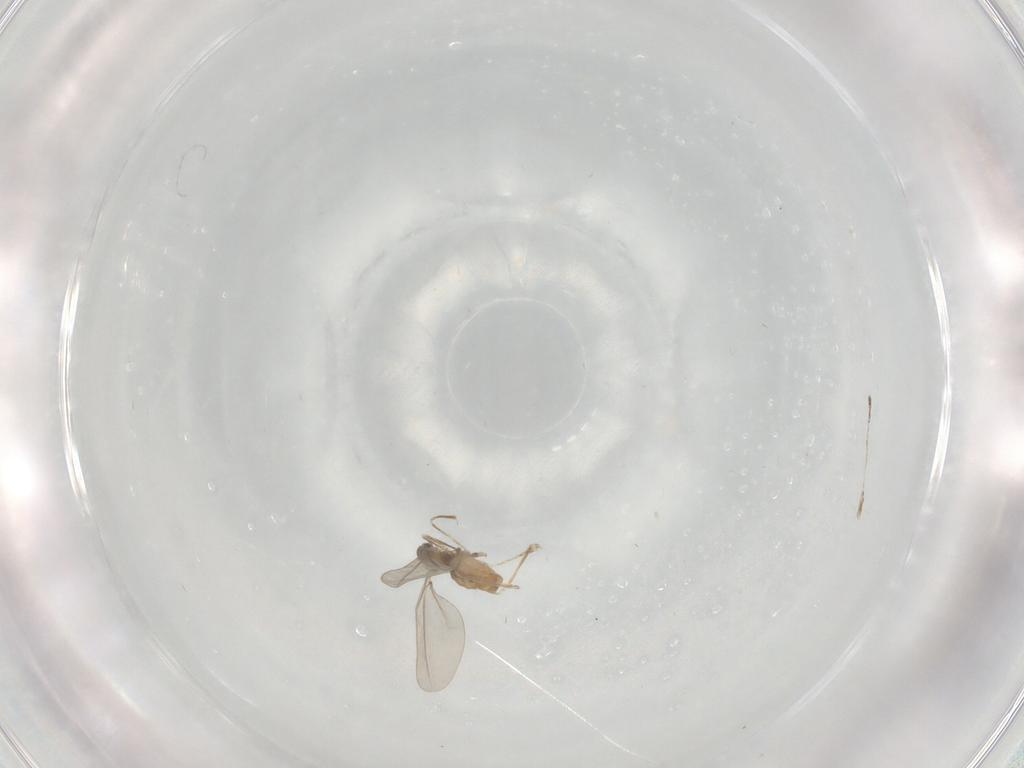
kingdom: Animalia
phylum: Arthropoda
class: Insecta
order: Diptera
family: Cecidomyiidae
